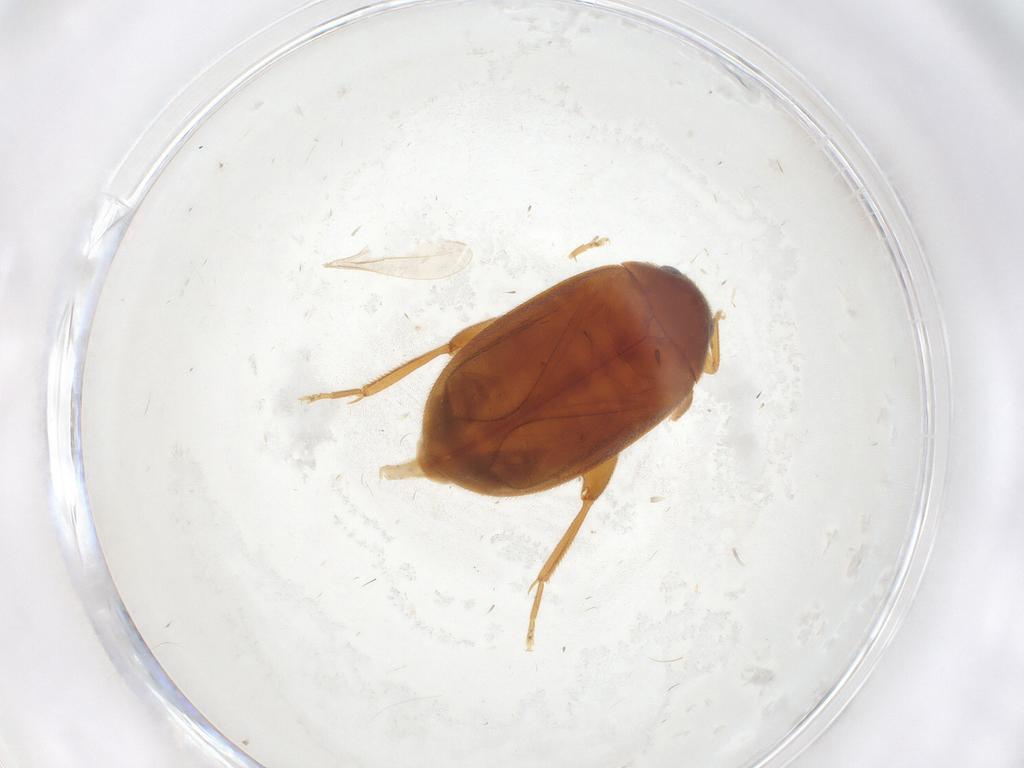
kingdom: Animalia
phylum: Arthropoda
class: Insecta
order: Coleoptera
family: Scirtidae
